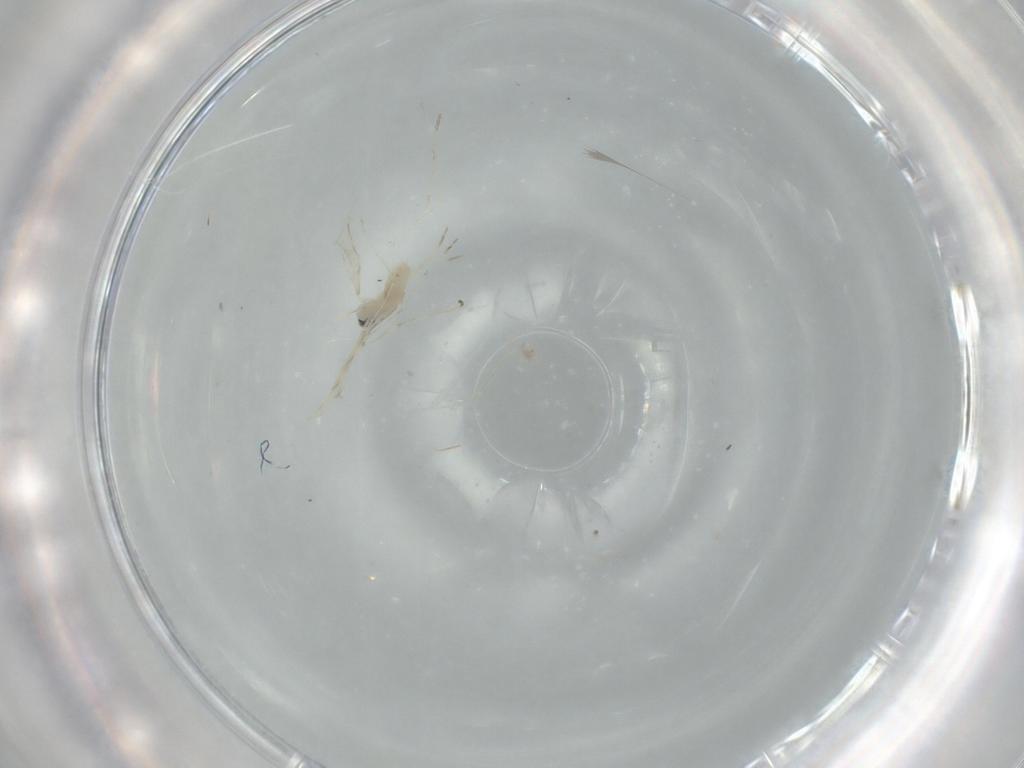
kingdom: Animalia
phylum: Arthropoda
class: Insecta
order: Diptera
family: Cecidomyiidae
